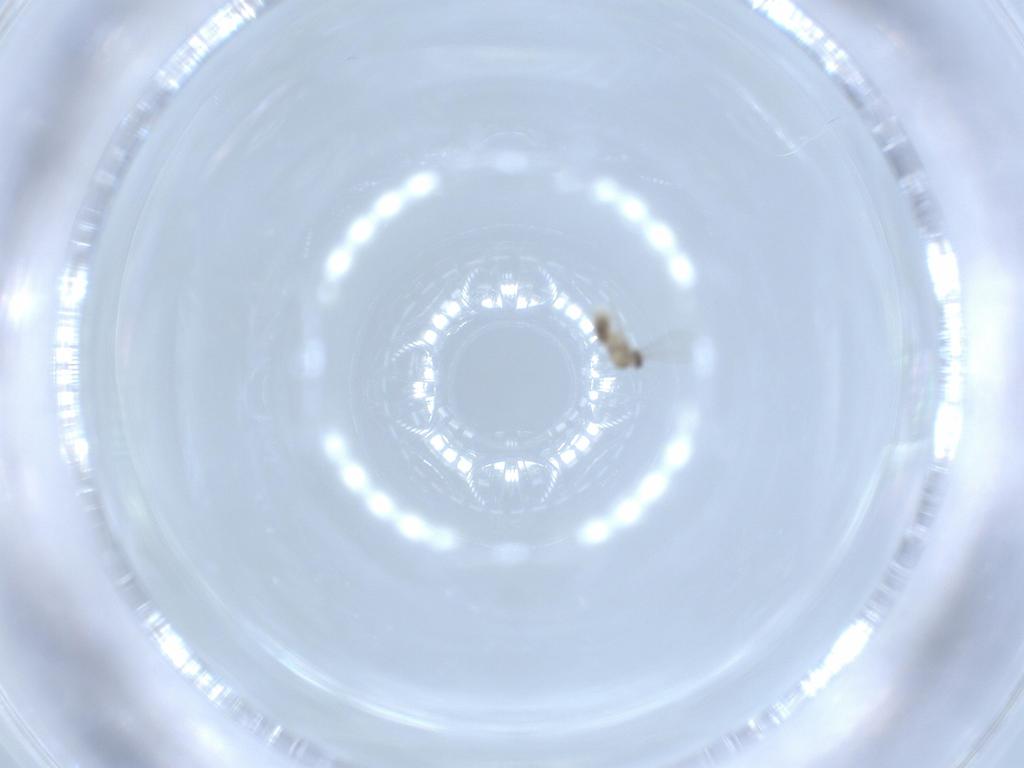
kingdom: Animalia
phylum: Arthropoda
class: Insecta
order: Diptera
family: Cecidomyiidae
